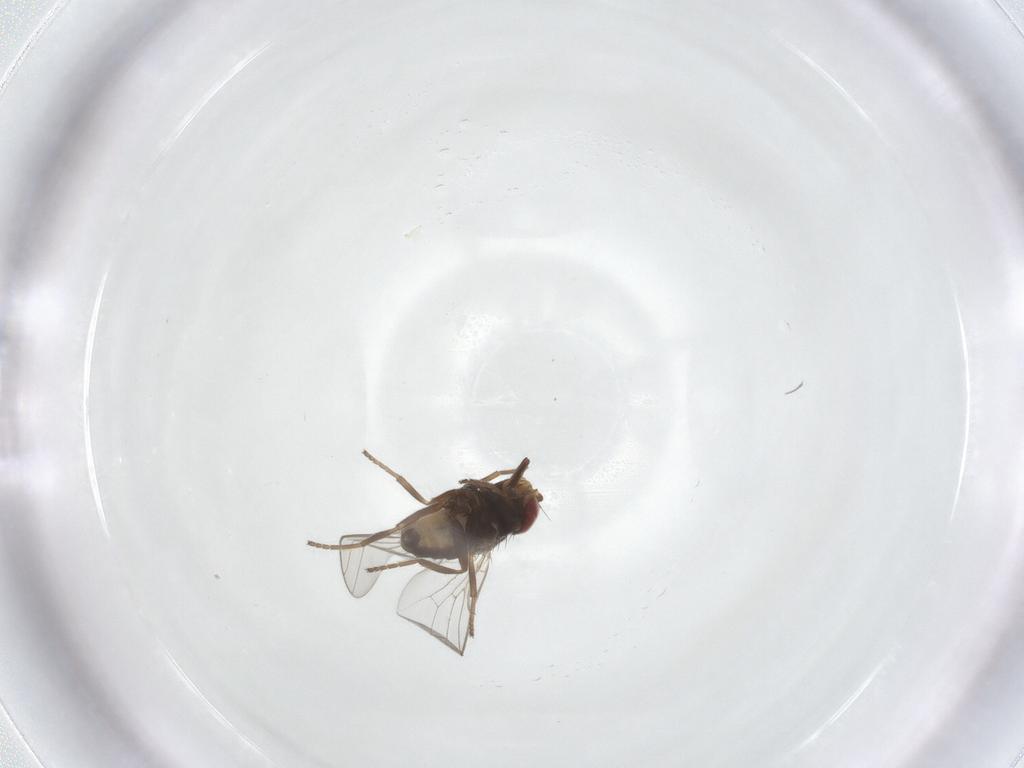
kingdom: Animalia
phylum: Arthropoda
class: Insecta
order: Diptera
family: Chloropidae
